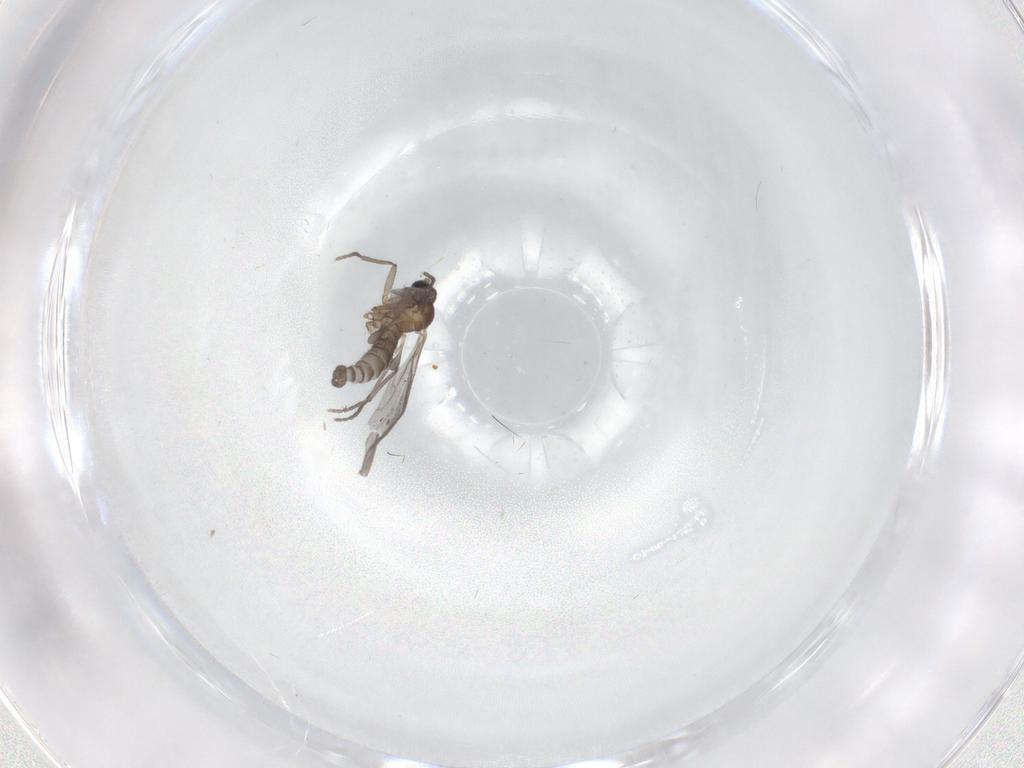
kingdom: Animalia
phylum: Arthropoda
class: Insecta
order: Diptera
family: Sciaridae
